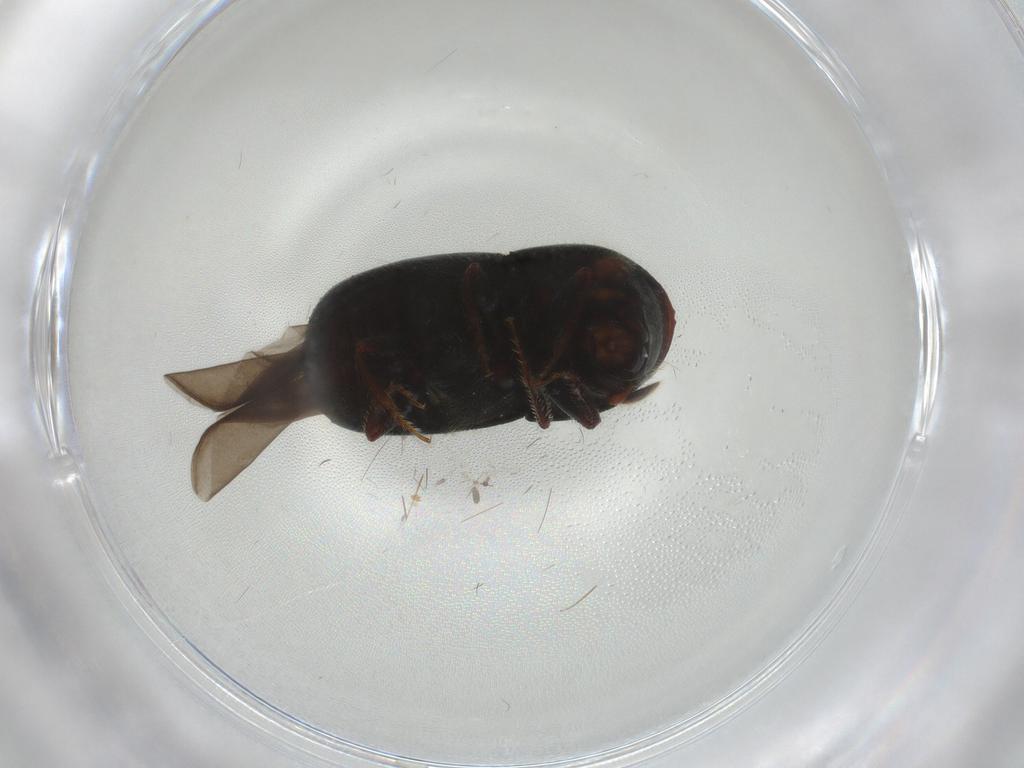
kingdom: Animalia
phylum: Arthropoda
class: Insecta
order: Coleoptera
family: Curculionidae
